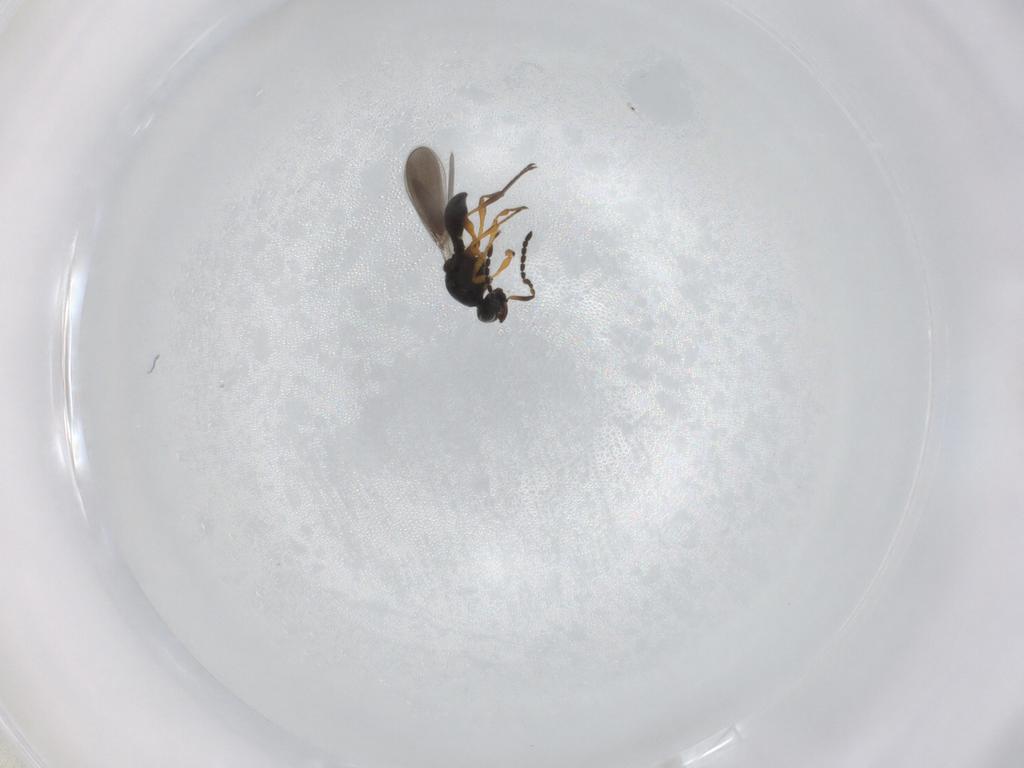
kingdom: Animalia
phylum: Arthropoda
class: Insecta
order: Hymenoptera
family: Platygastridae
